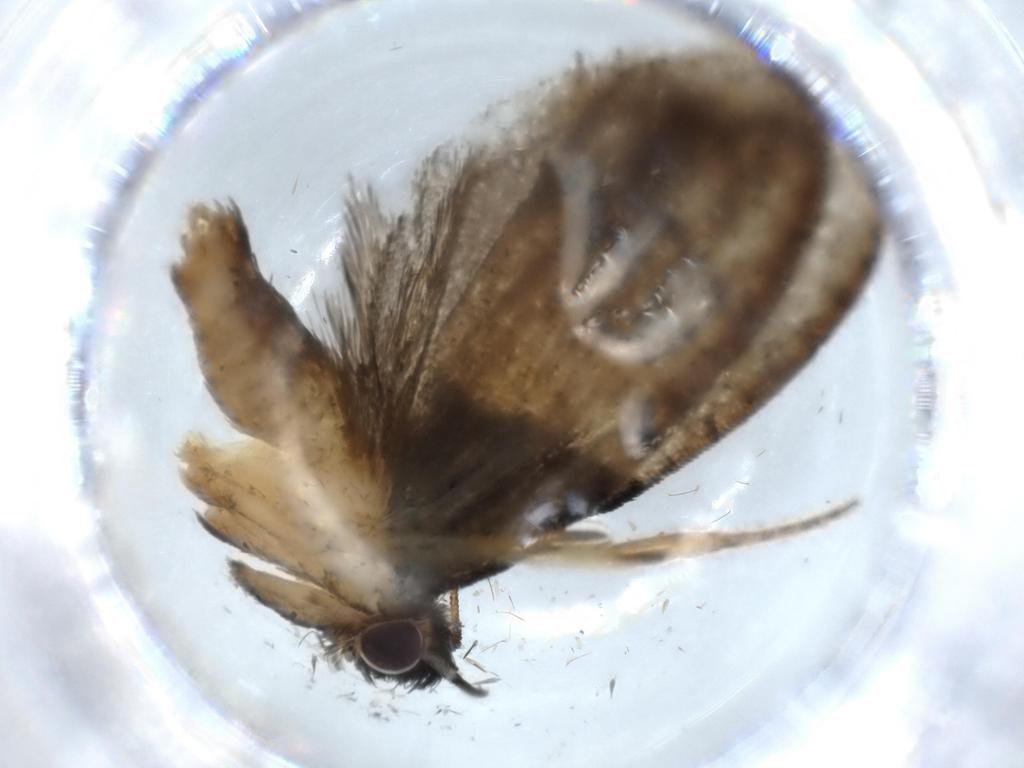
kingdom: Animalia
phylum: Arthropoda
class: Insecta
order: Lepidoptera
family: Psychidae
